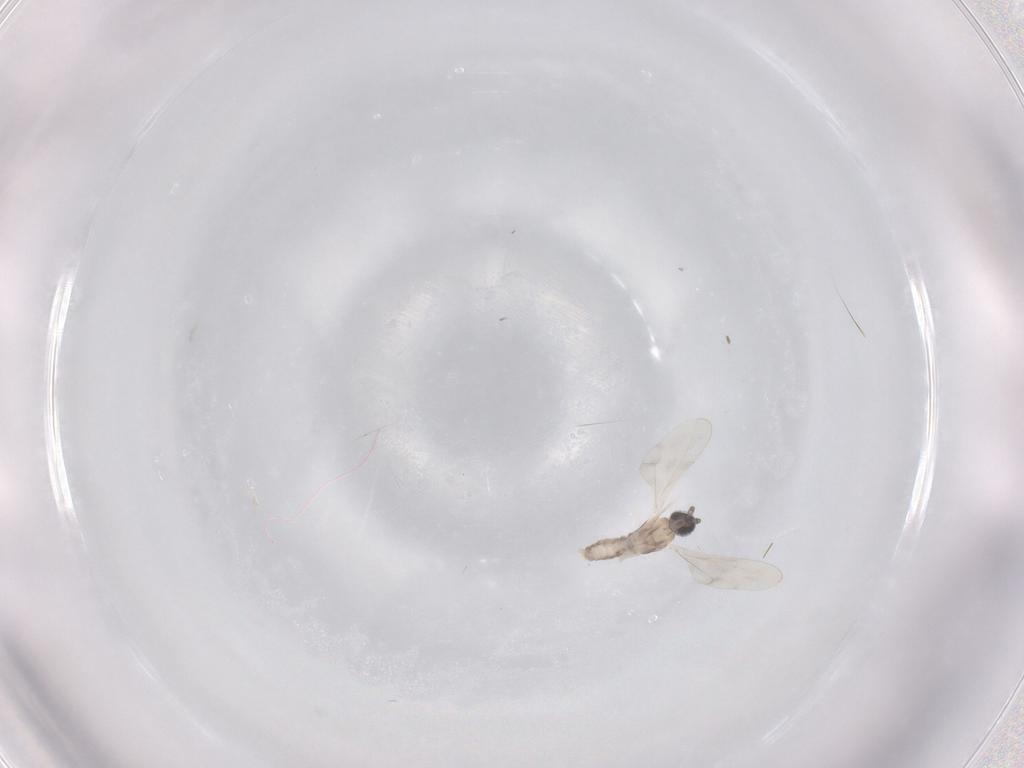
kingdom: Animalia
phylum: Arthropoda
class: Insecta
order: Diptera
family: Cecidomyiidae
